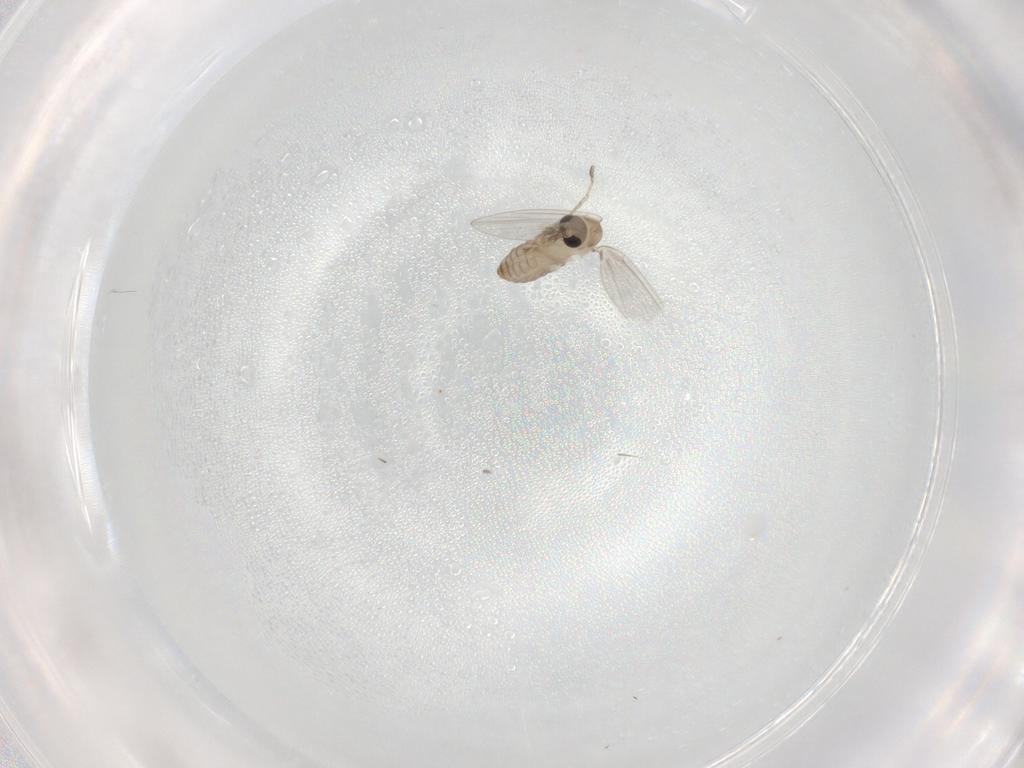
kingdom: Animalia
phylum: Arthropoda
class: Insecta
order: Diptera
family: Psychodidae
